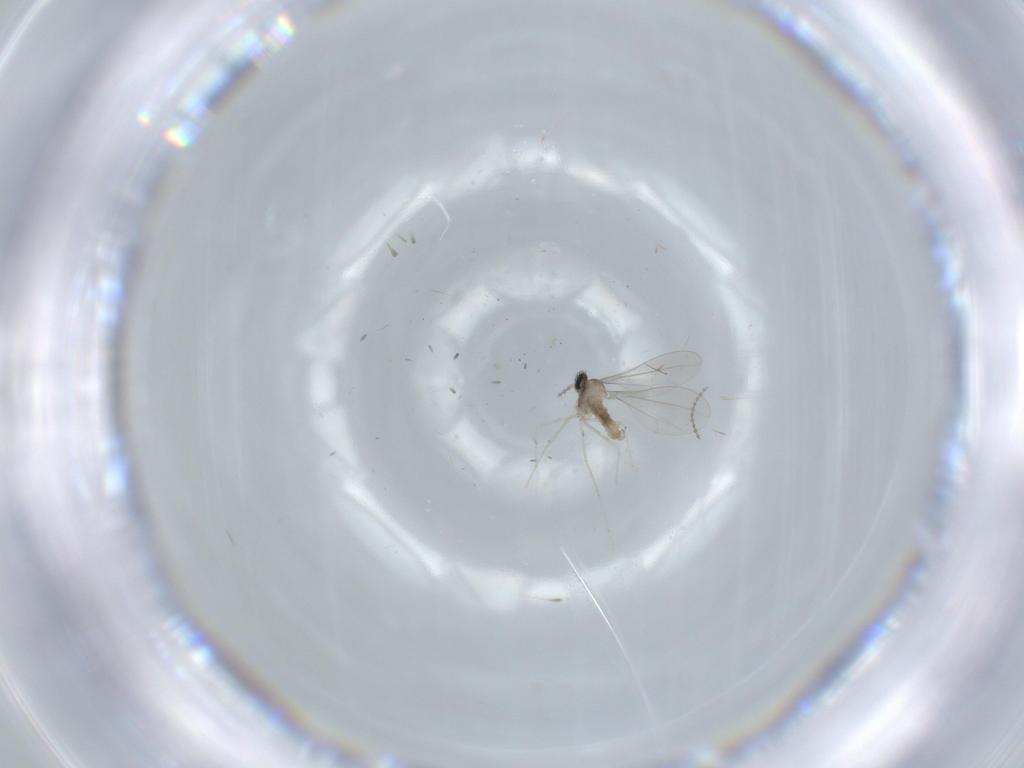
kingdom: Animalia
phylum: Arthropoda
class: Insecta
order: Diptera
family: Cecidomyiidae
